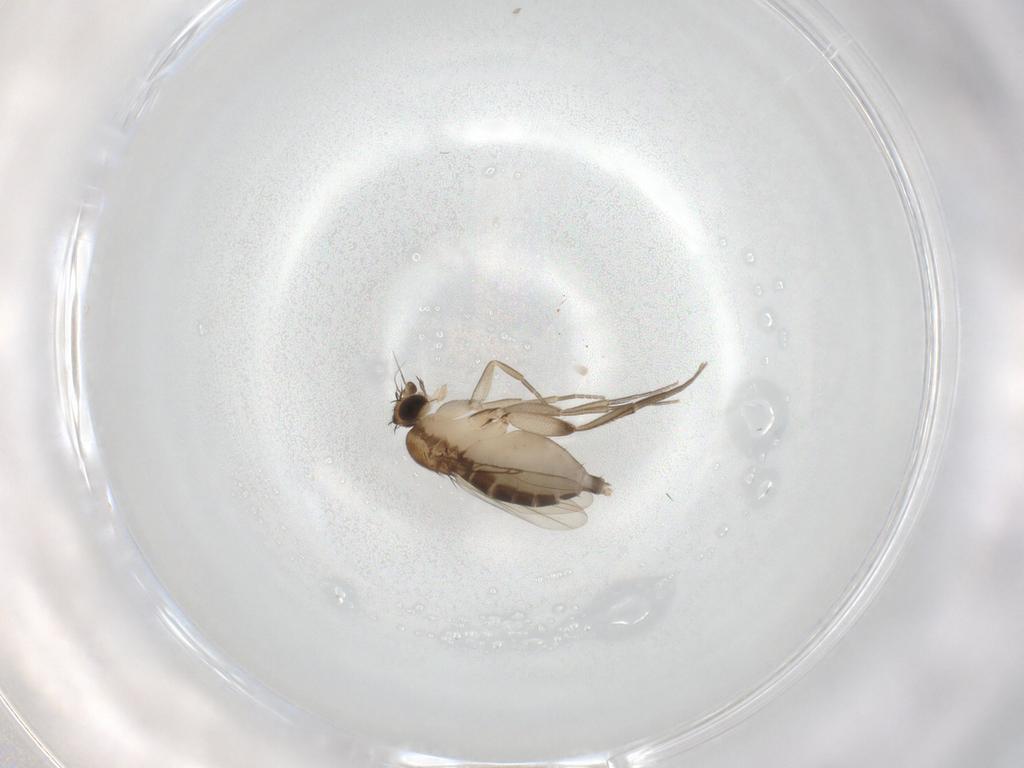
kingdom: Animalia
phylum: Arthropoda
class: Insecta
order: Diptera
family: Phoridae
